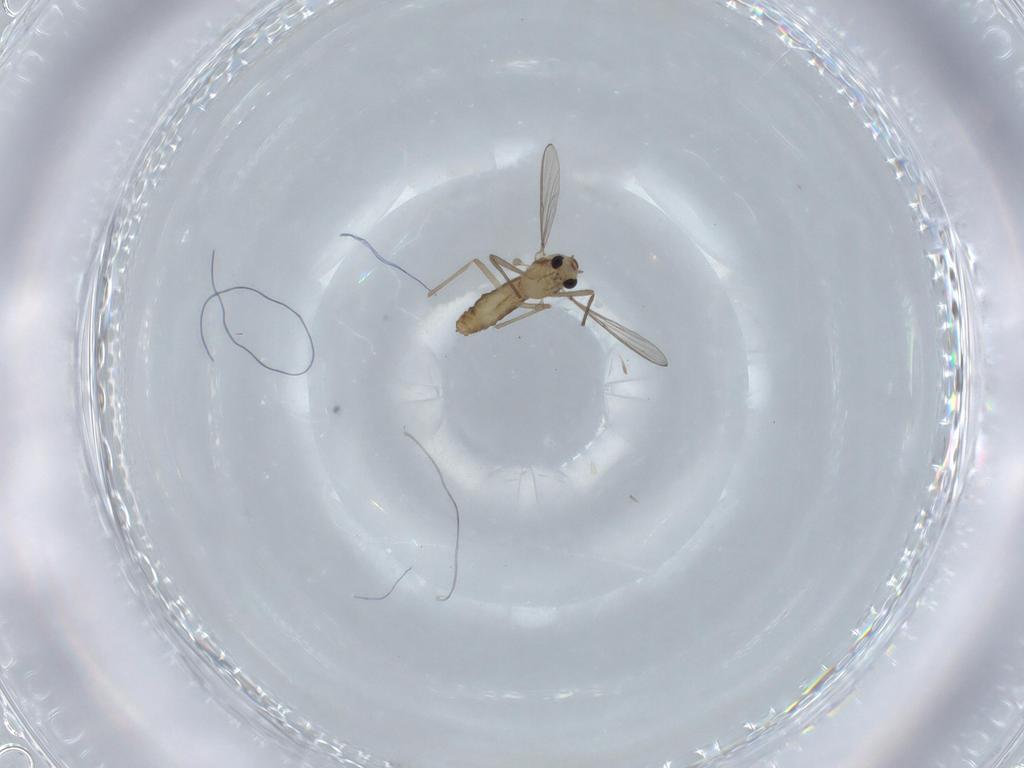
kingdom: Animalia
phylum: Arthropoda
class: Insecta
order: Diptera
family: Chironomidae
